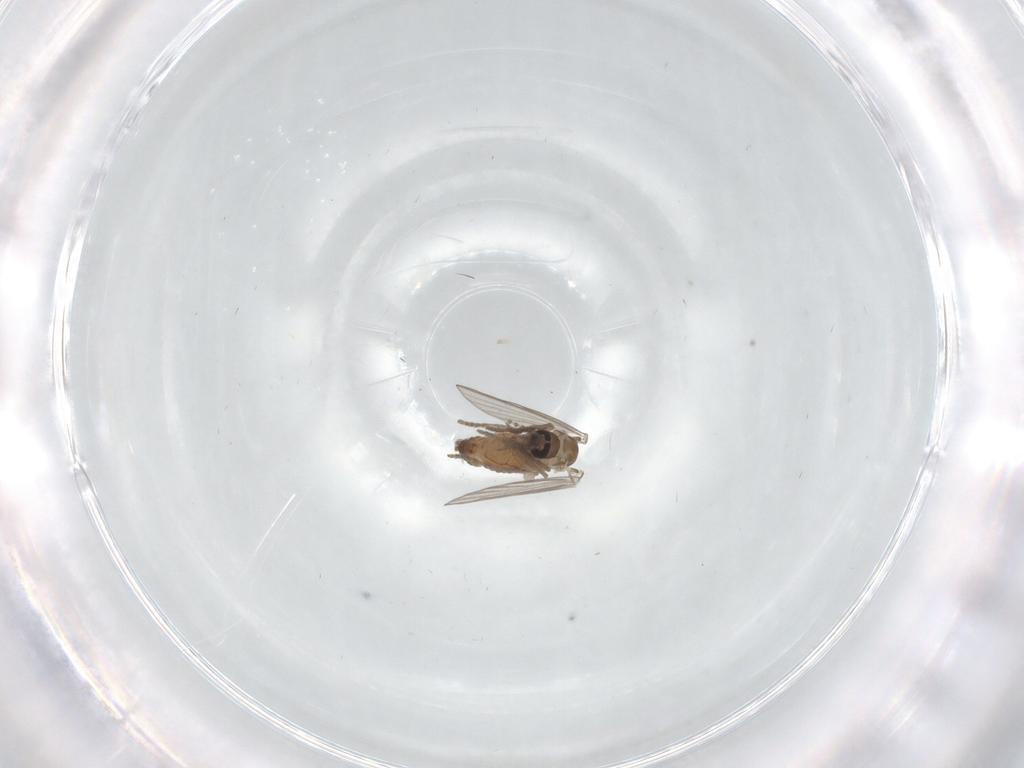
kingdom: Animalia
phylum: Arthropoda
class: Insecta
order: Diptera
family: Psychodidae
